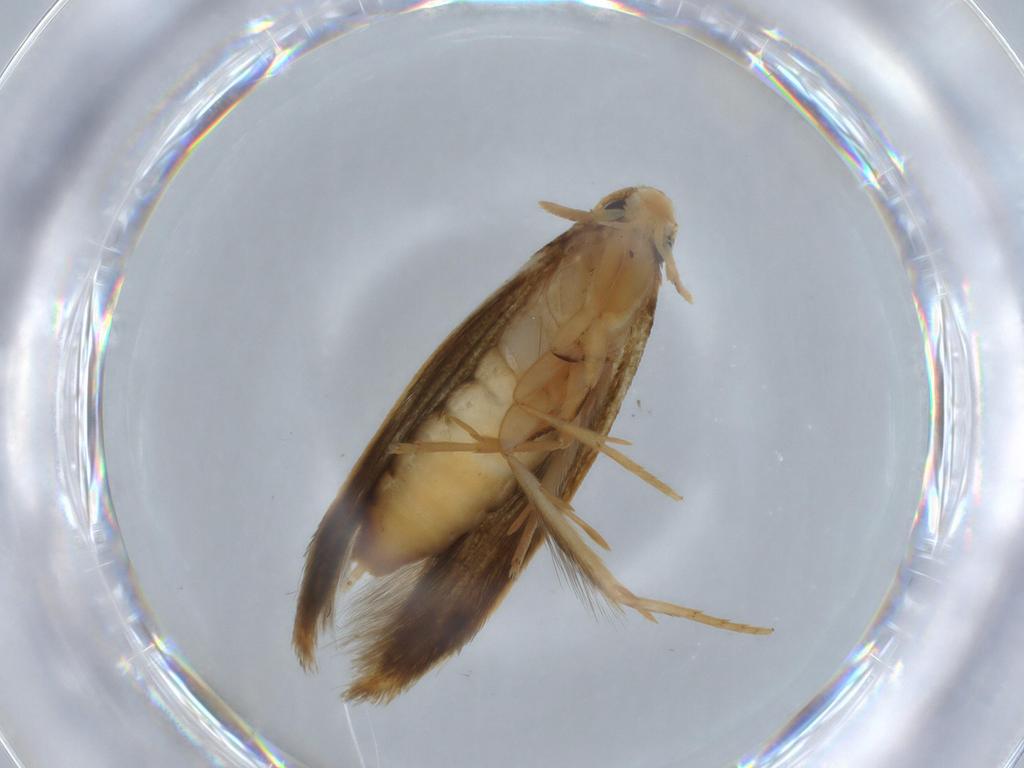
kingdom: Animalia
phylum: Arthropoda
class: Insecta
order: Lepidoptera
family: Tineidae
